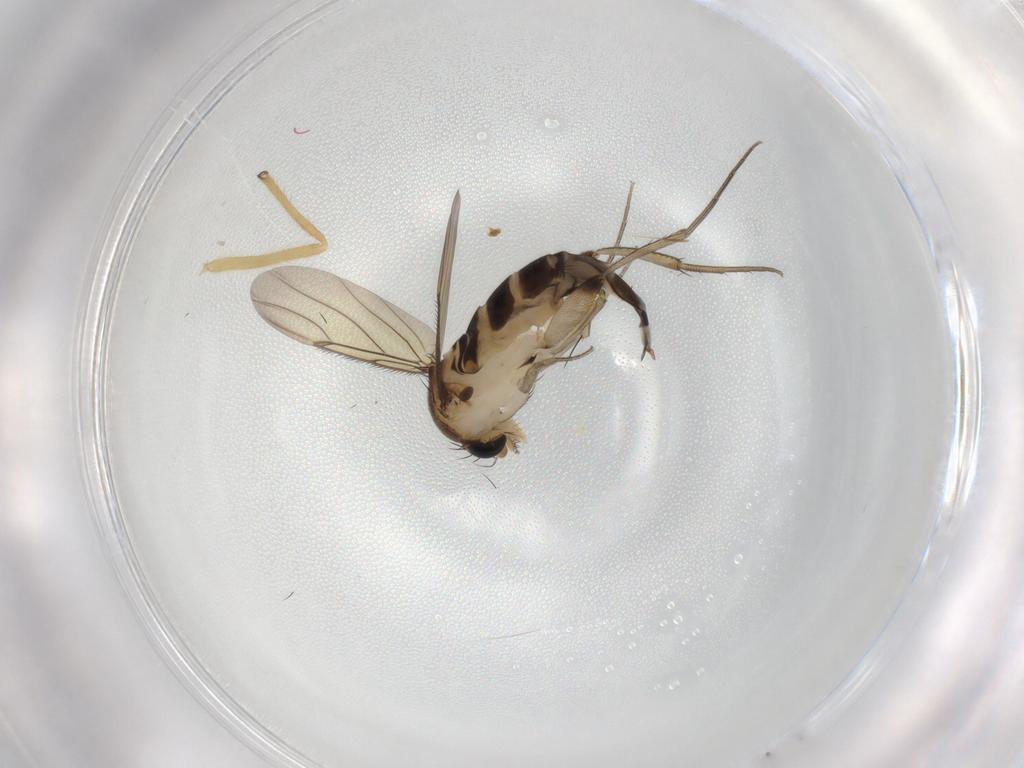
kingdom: Animalia
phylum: Arthropoda
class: Insecta
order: Diptera
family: Phoridae
